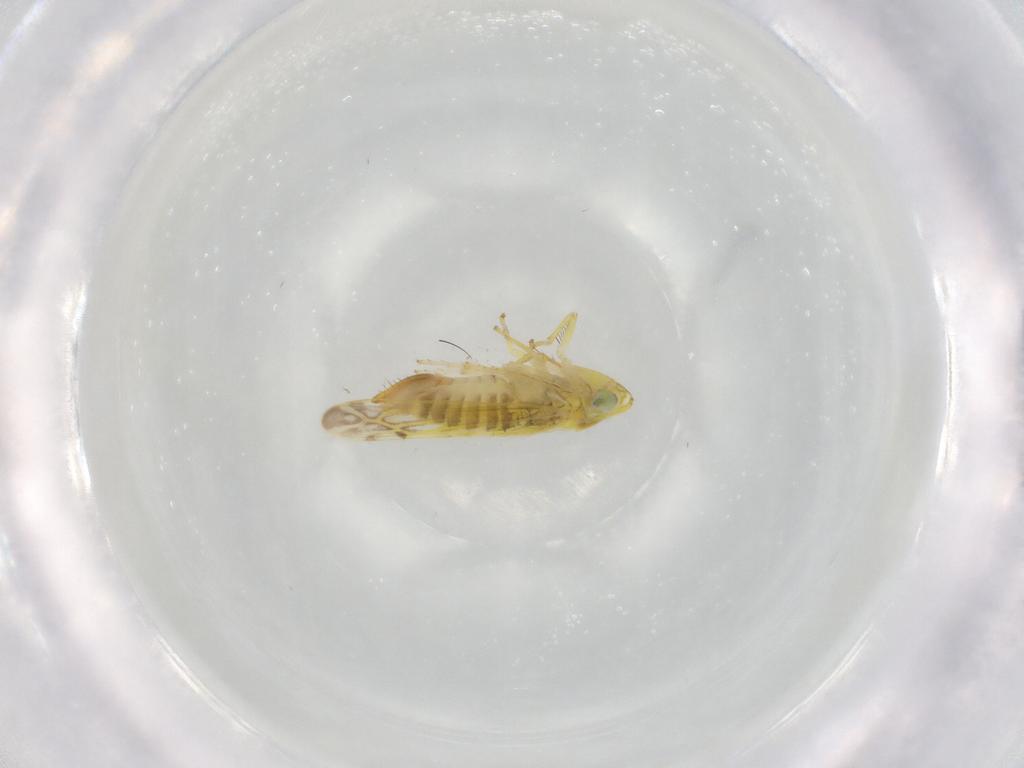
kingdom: Animalia
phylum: Arthropoda
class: Insecta
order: Hemiptera
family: Cicadellidae
